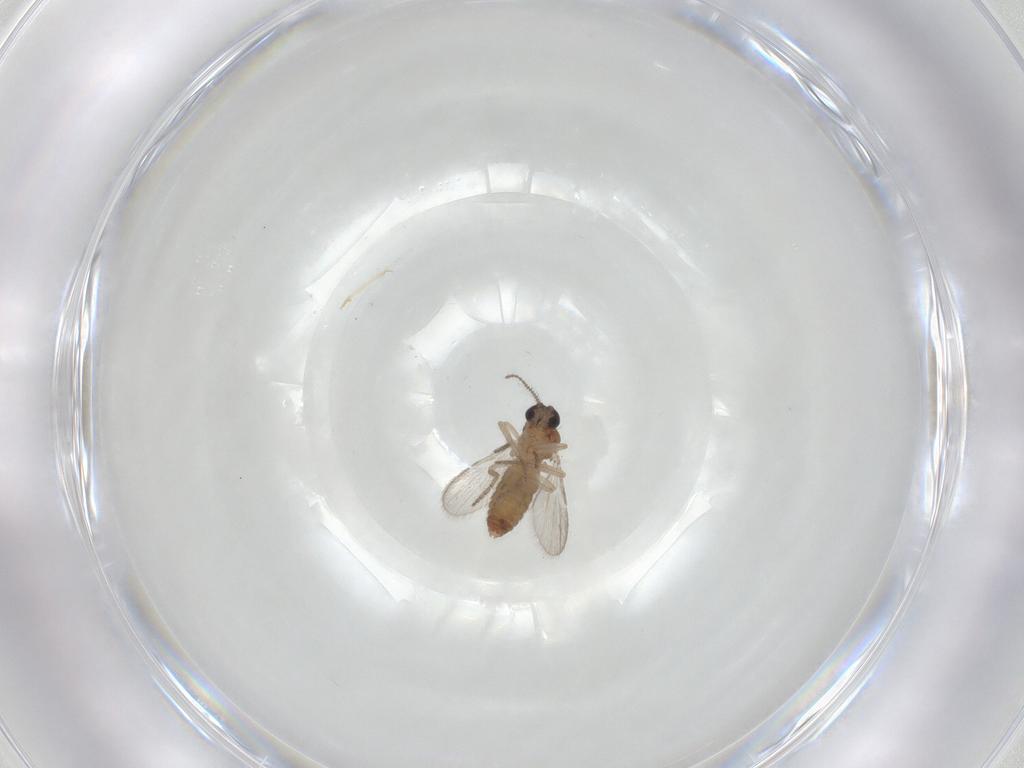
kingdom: Animalia
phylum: Arthropoda
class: Insecta
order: Diptera
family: Ceratopogonidae
